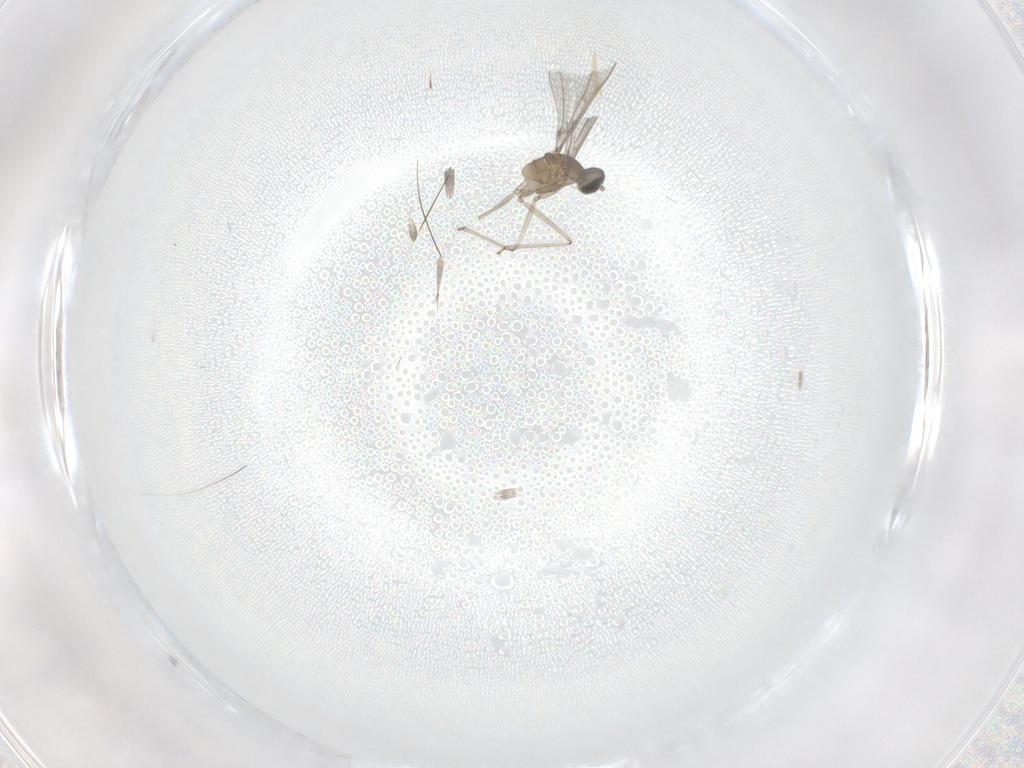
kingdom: Animalia
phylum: Arthropoda
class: Insecta
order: Diptera
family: Cecidomyiidae
